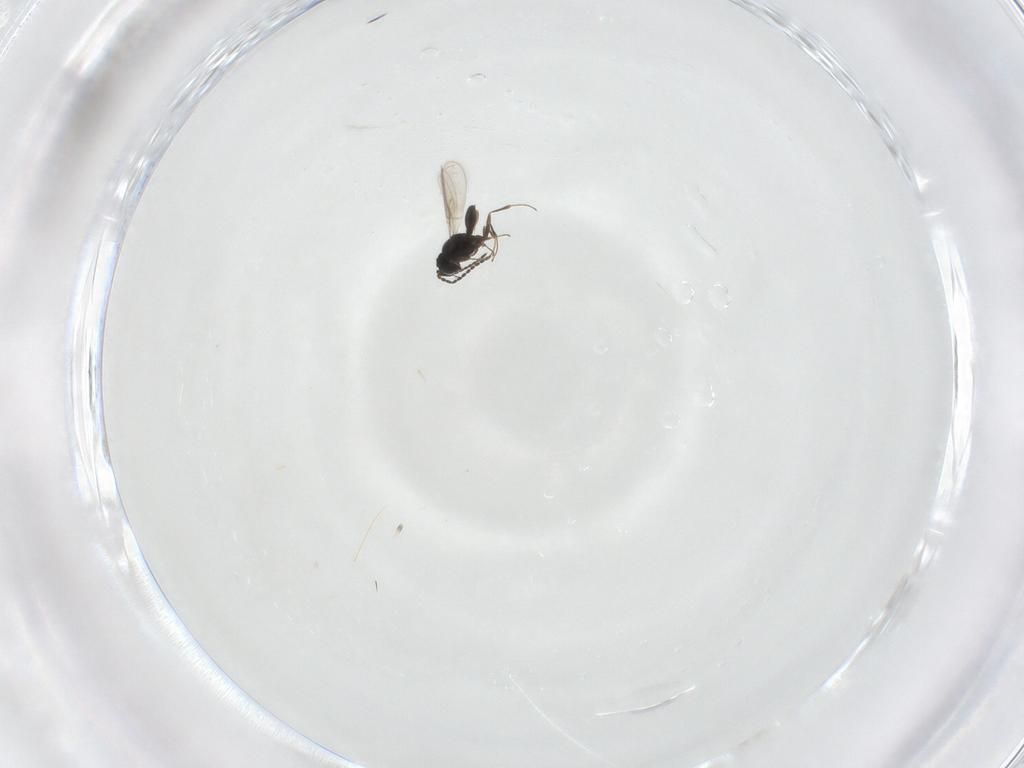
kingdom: Animalia
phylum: Arthropoda
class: Insecta
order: Hymenoptera
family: Scelionidae
